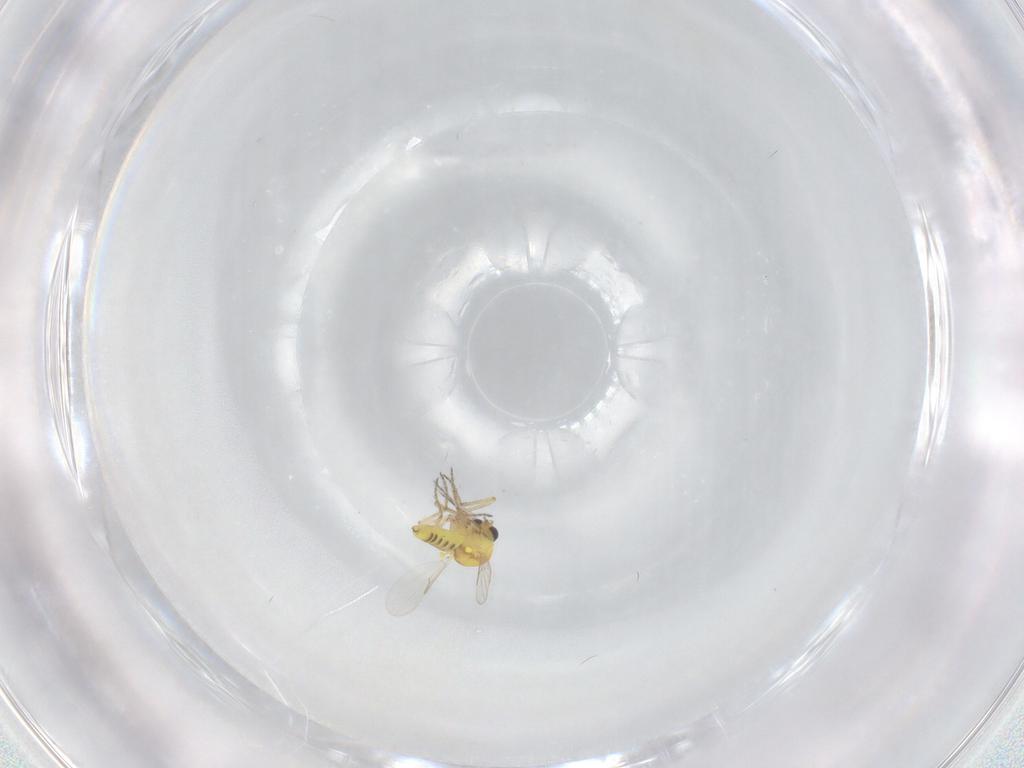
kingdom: Animalia
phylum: Arthropoda
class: Insecta
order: Diptera
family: Ceratopogonidae
